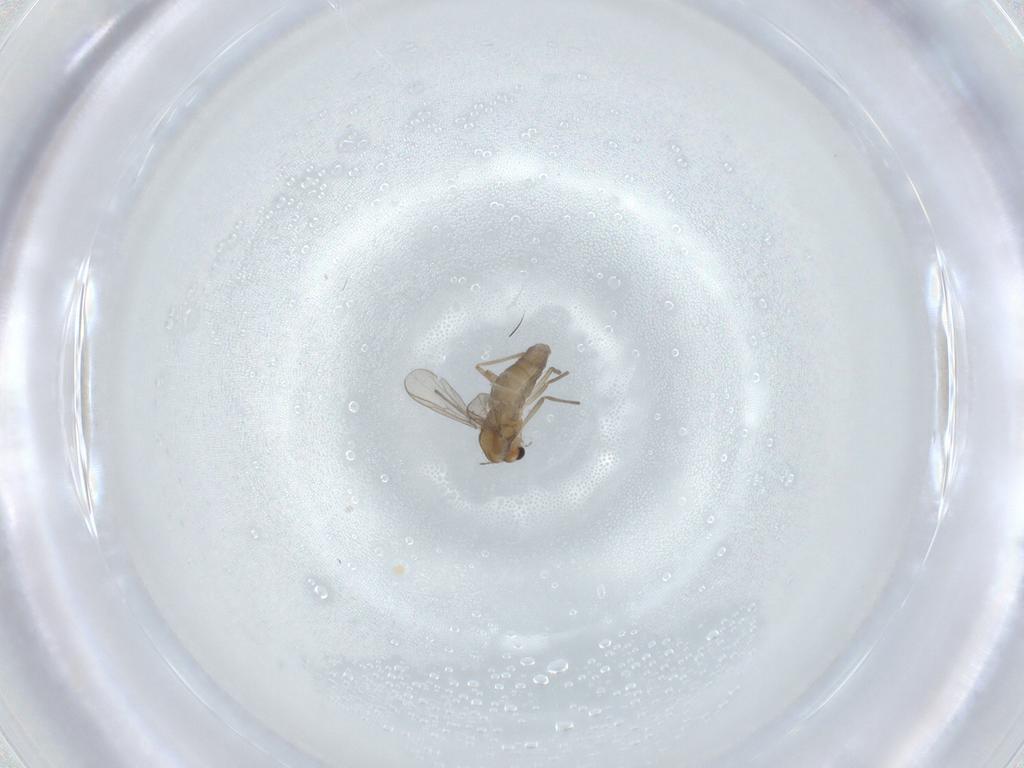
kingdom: Animalia
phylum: Arthropoda
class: Insecta
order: Diptera
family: Chironomidae
